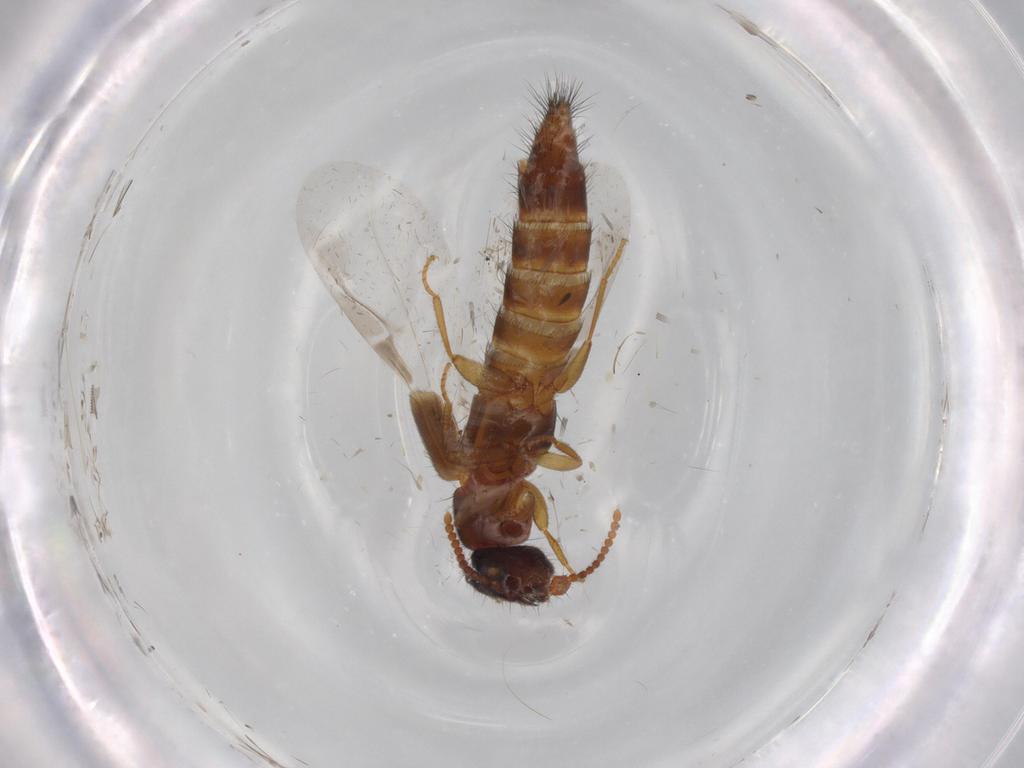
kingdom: Animalia
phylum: Arthropoda
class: Insecta
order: Coleoptera
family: Staphylinidae
